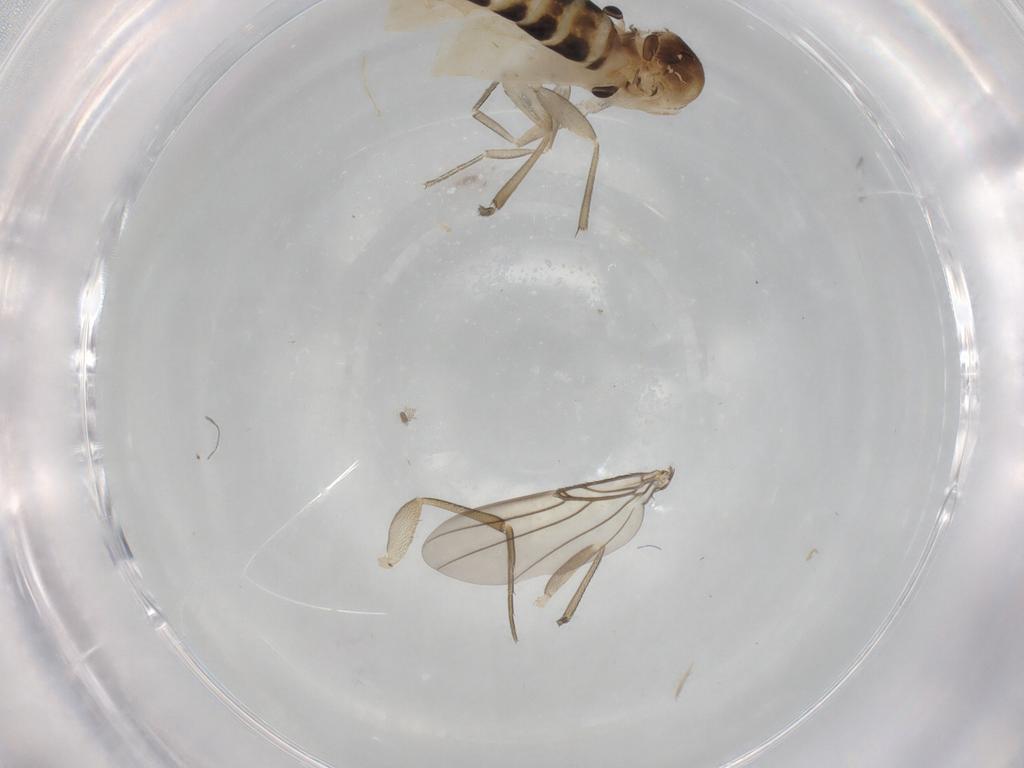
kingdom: Animalia
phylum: Arthropoda
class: Insecta
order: Diptera
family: Phoridae
